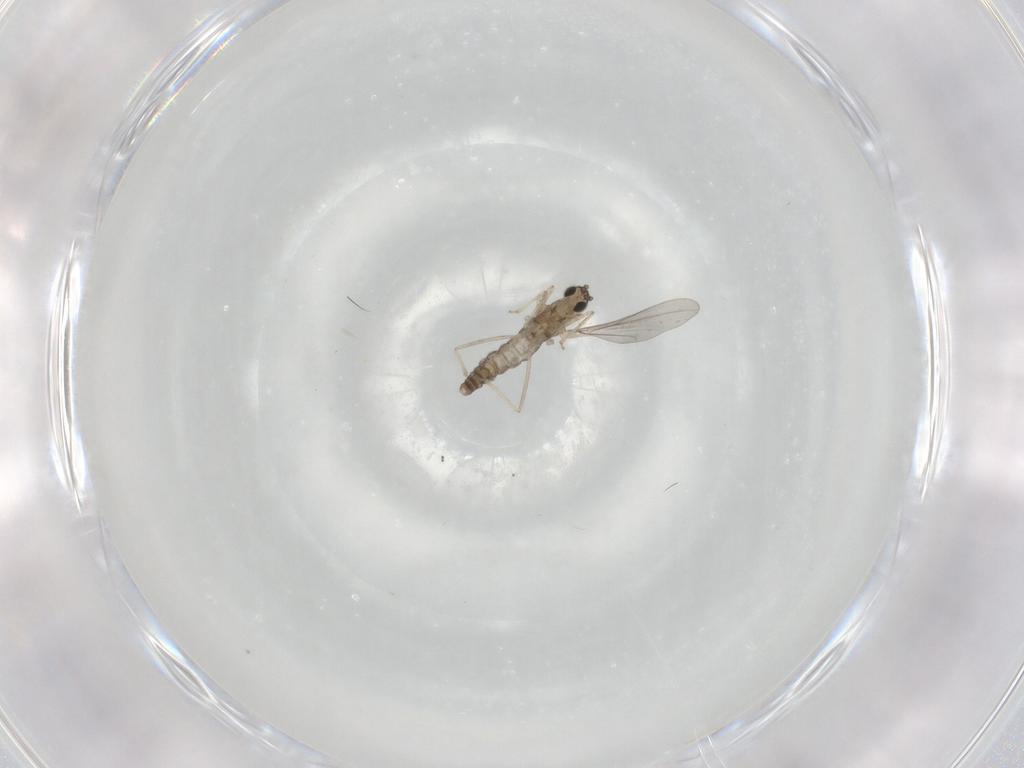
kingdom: Animalia
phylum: Arthropoda
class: Insecta
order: Diptera
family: Cecidomyiidae
